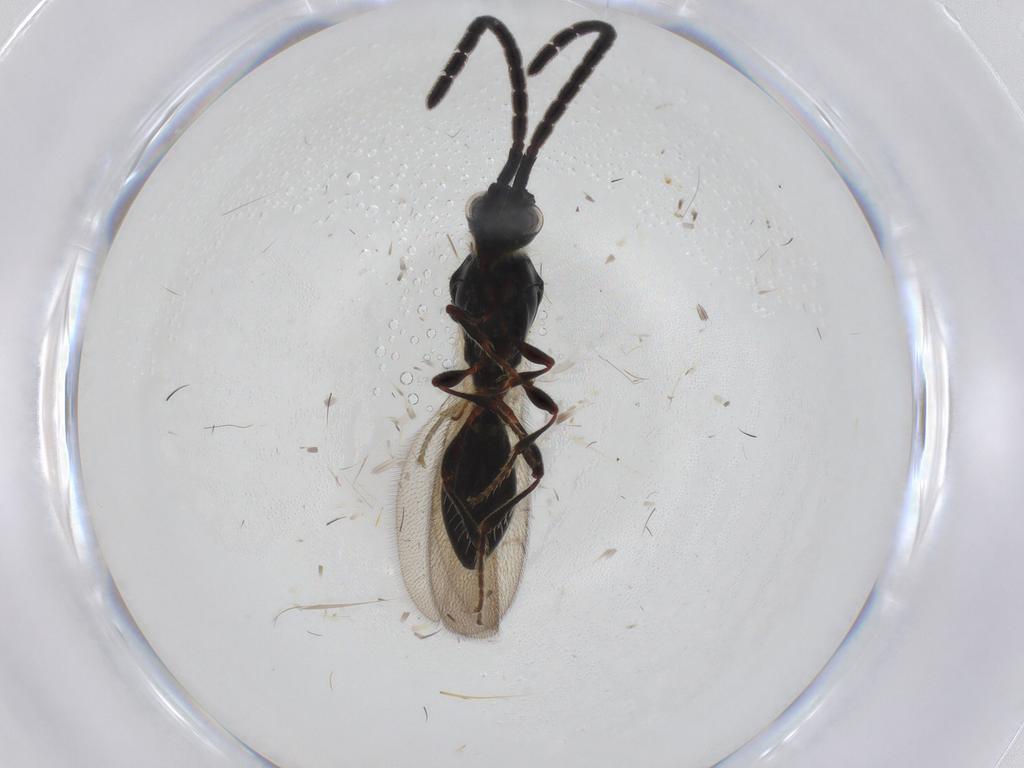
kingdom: Animalia
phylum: Arthropoda
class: Insecta
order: Hymenoptera
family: Diapriidae
